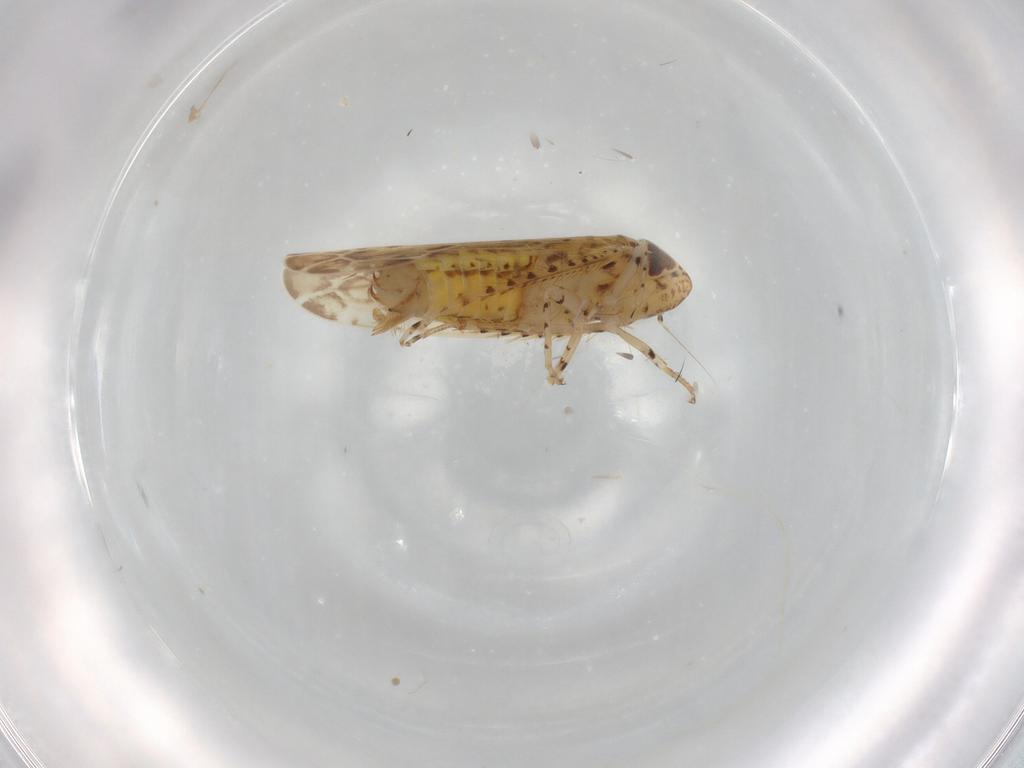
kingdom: Animalia
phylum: Arthropoda
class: Insecta
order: Hemiptera
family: Cicadellidae
